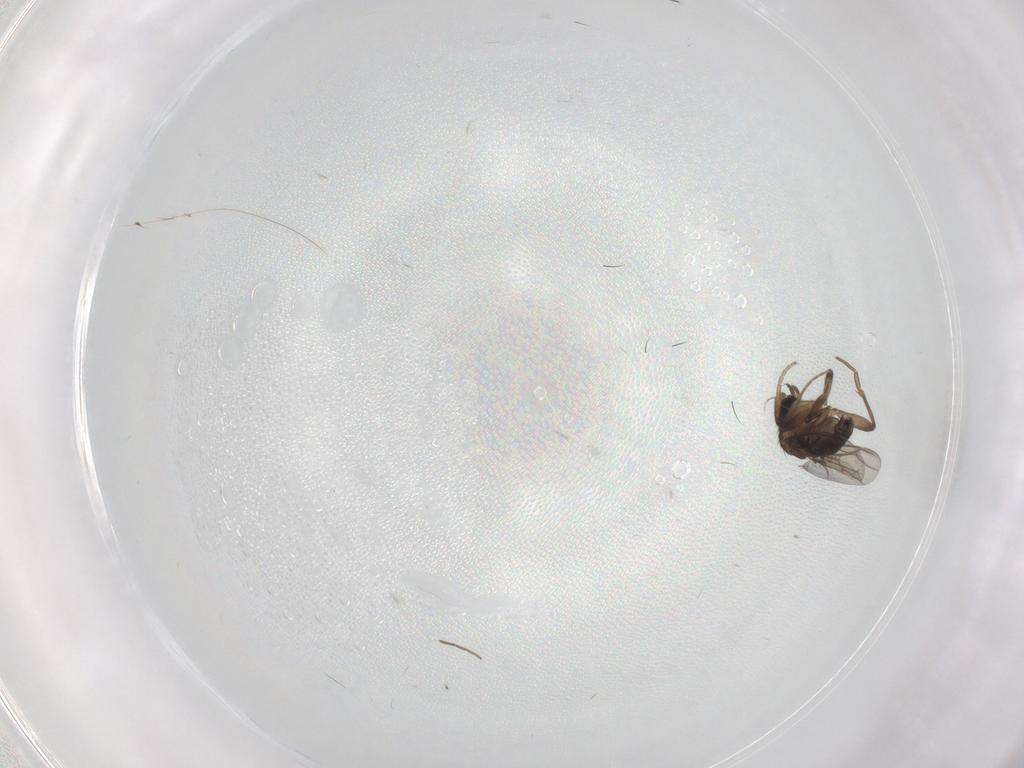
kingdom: Animalia
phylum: Arthropoda
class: Insecta
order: Diptera
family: Phoridae
